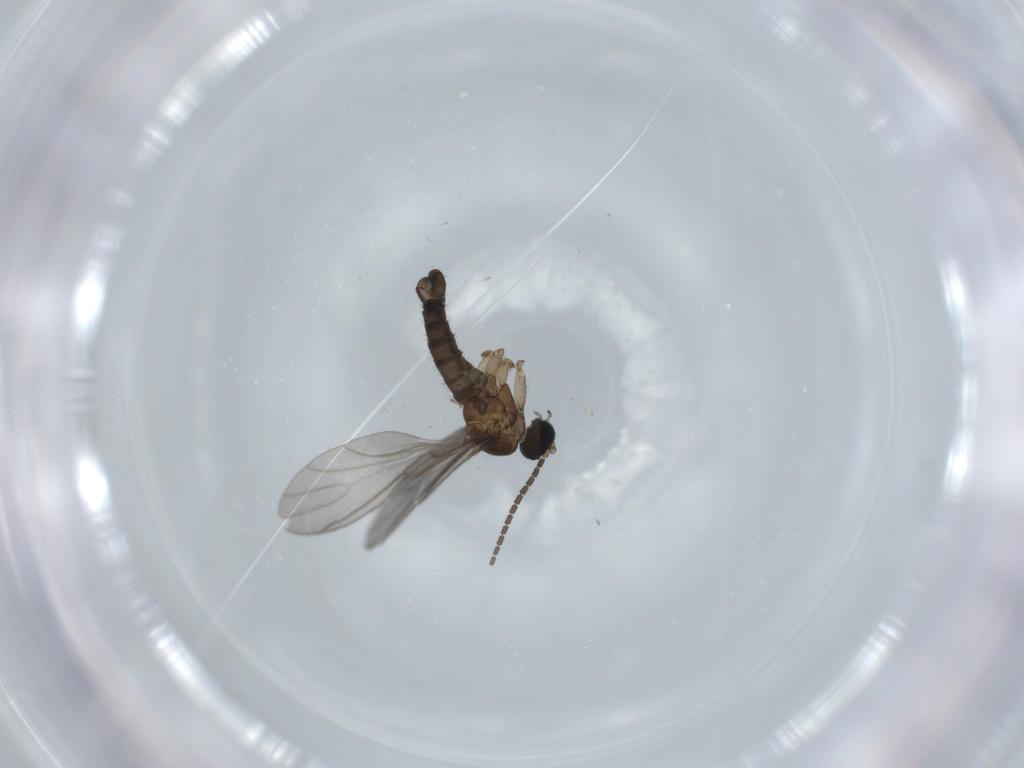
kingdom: Animalia
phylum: Arthropoda
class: Insecta
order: Diptera
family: Sciaridae
